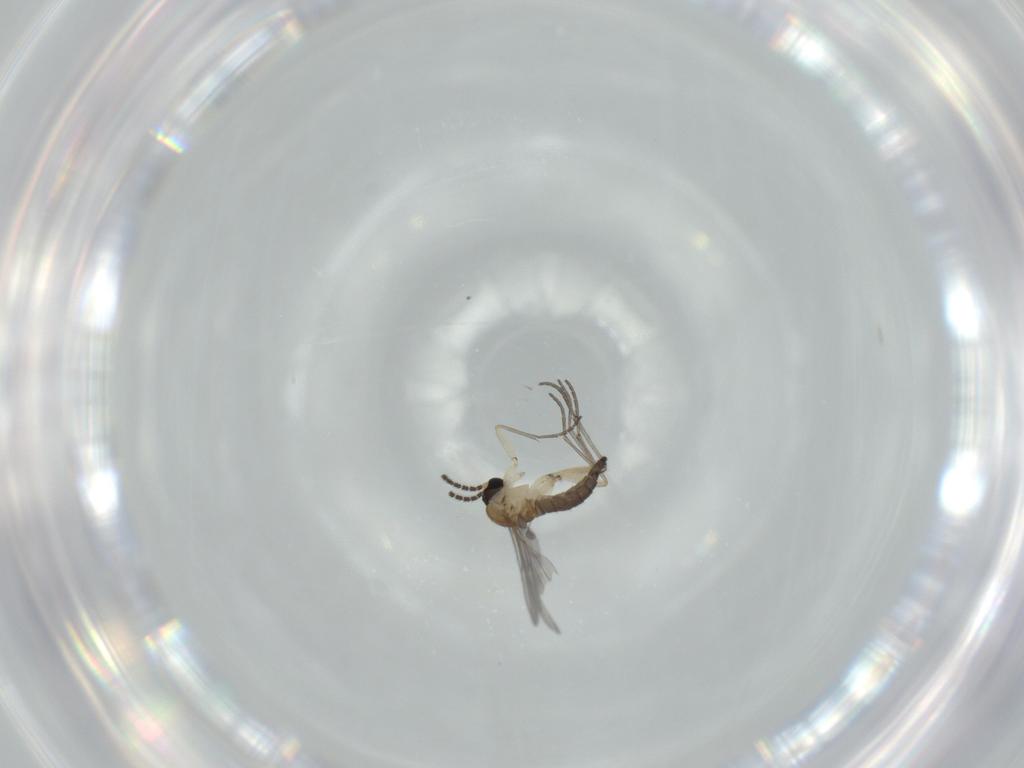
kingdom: Animalia
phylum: Arthropoda
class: Insecta
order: Diptera
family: Sciaridae
